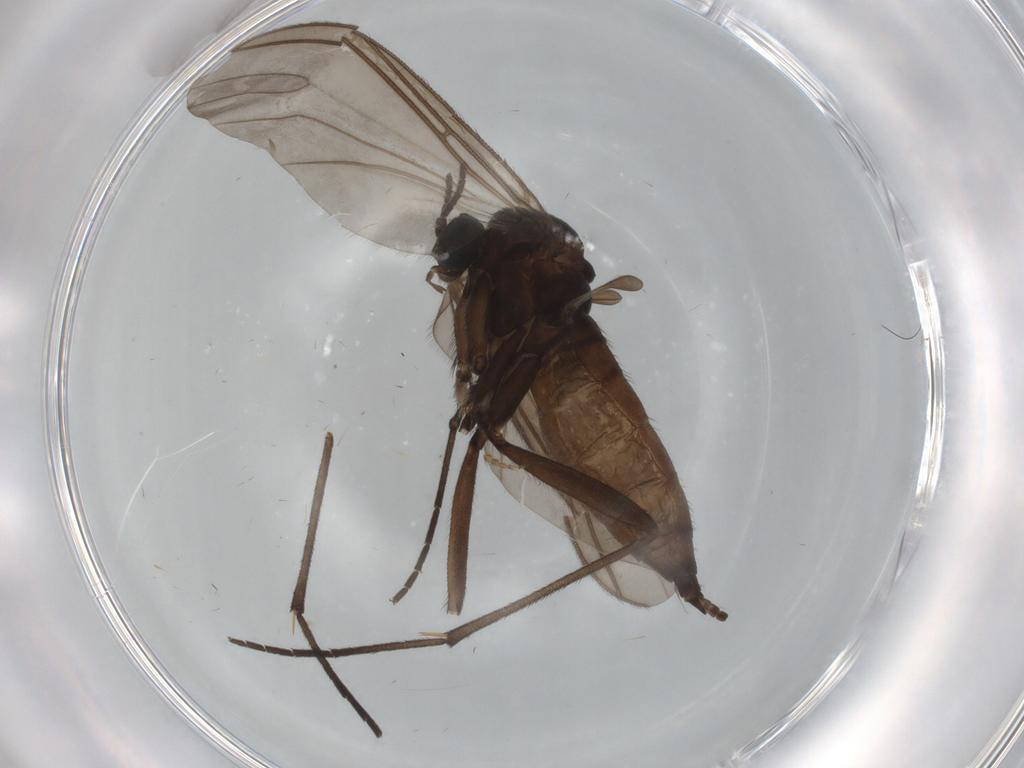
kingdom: Animalia
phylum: Arthropoda
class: Insecta
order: Diptera
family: Limoniidae
